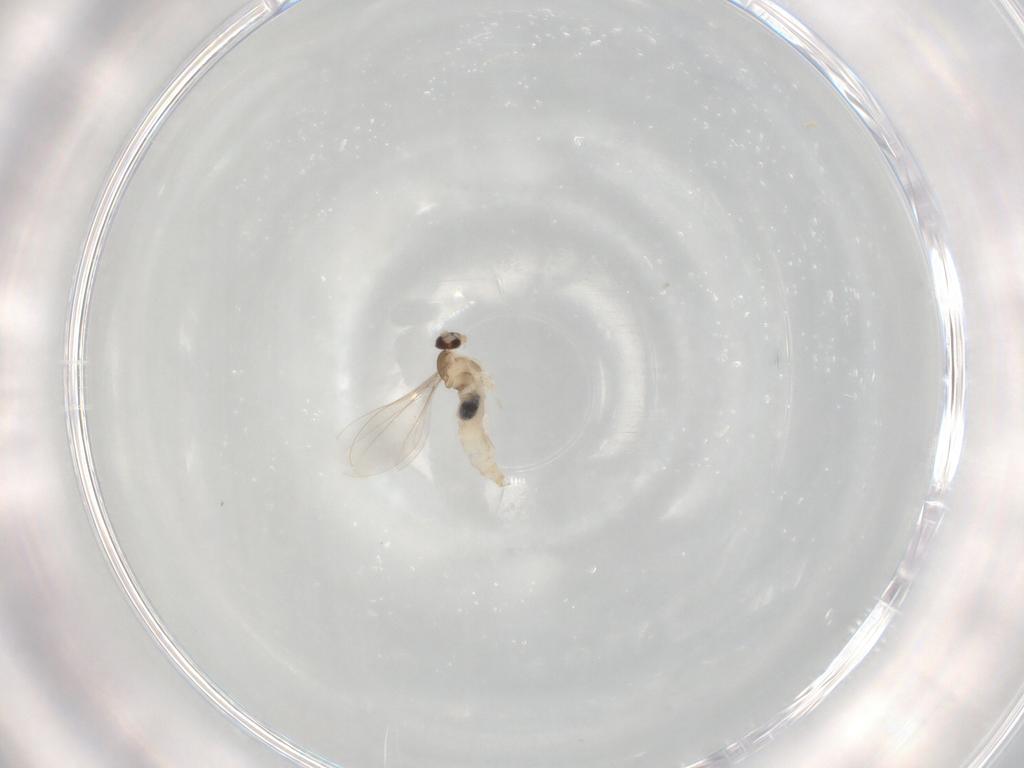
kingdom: Animalia
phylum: Arthropoda
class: Insecta
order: Diptera
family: Cecidomyiidae
